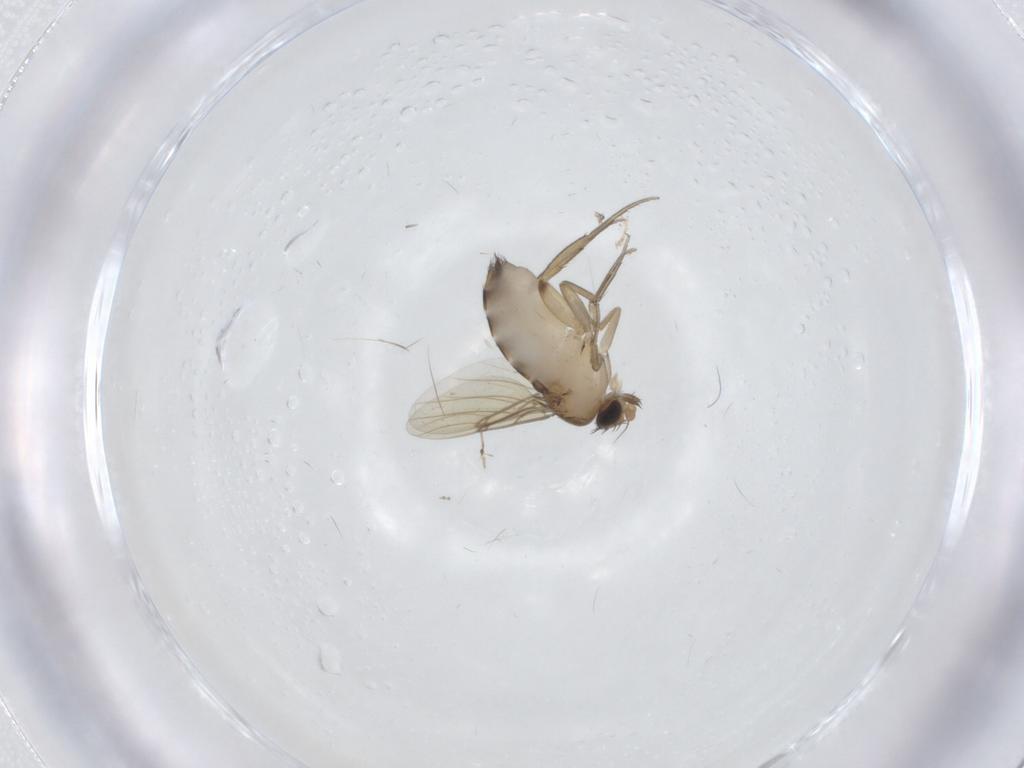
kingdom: Animalia
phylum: Arthropoda
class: Insecta
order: Diptera
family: Phoridae
